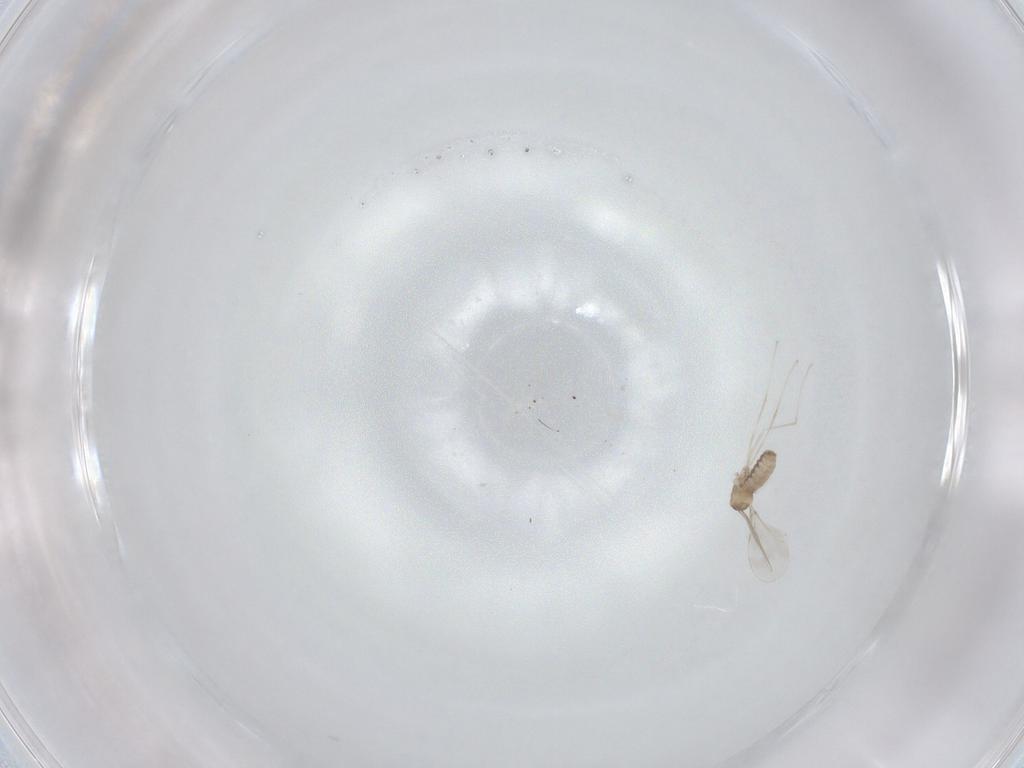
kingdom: Animalia
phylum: Arthropoda
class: Insecta
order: Diptera
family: Cecidomyiidae
